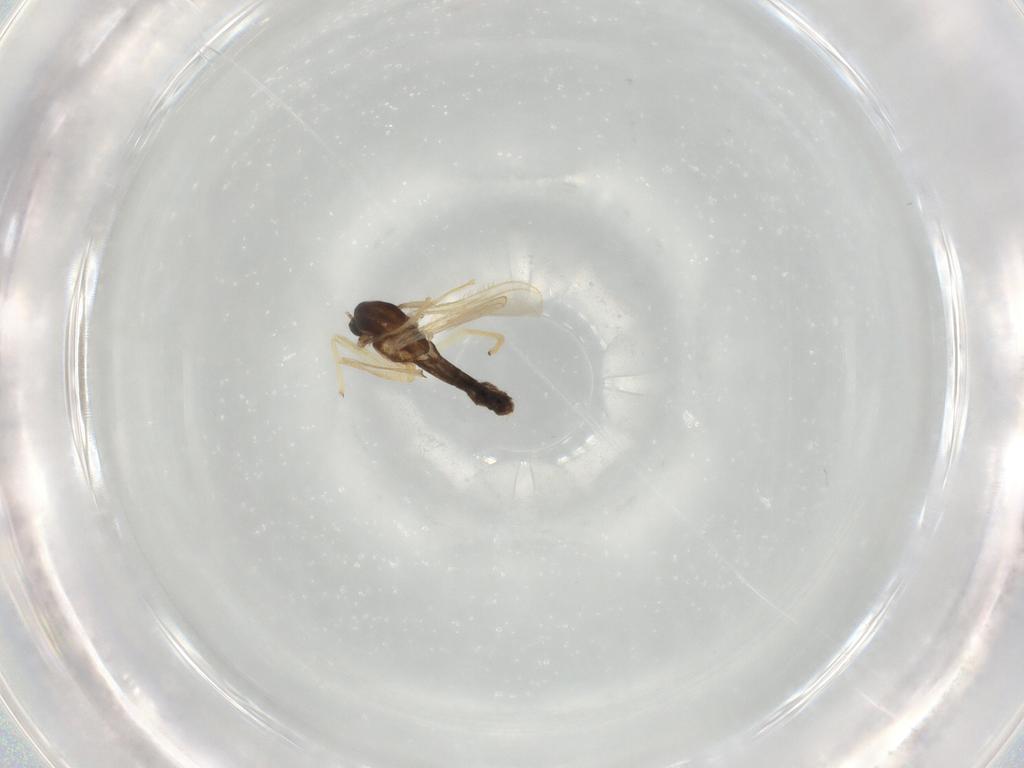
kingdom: Animalia
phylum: Arthropoda
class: Insecta
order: Diptera
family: Chironomidae
